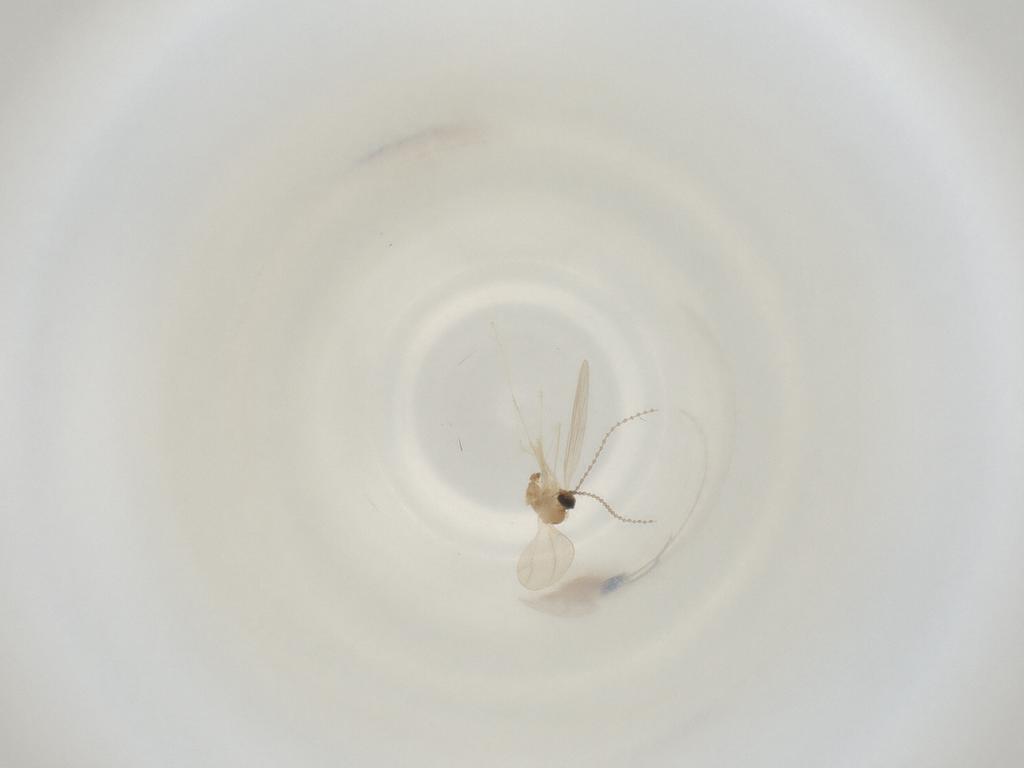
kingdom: Animalia
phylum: Arthropoda
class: Insecta
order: Diptera
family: Cecidomyiidae
